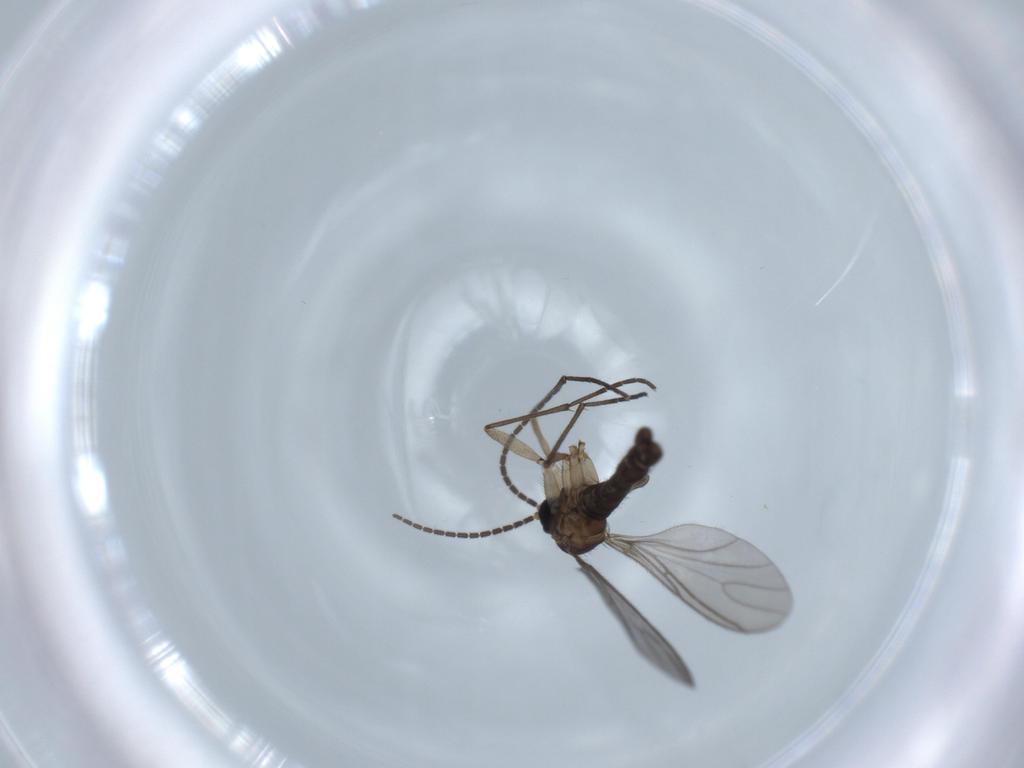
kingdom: Animalia
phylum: Arthropoda
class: Insecta
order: Diptera
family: Sciaridae
